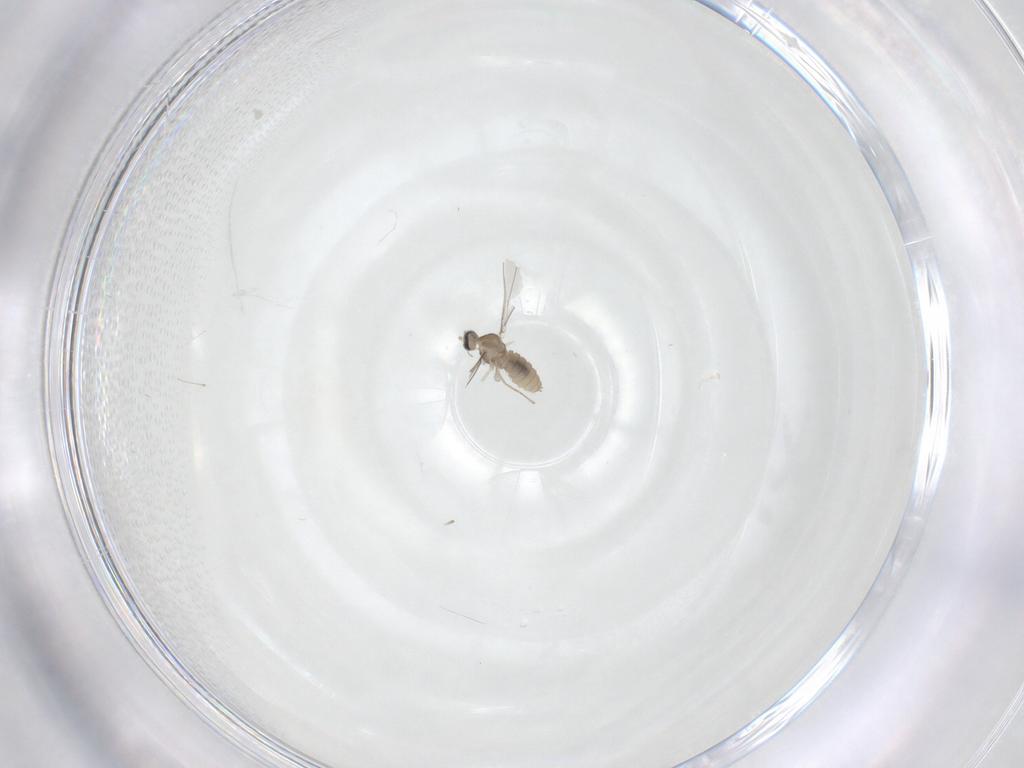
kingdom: Animalia
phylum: Arthropoda
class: Insecta
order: Diptera
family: Cecidomyiidae
